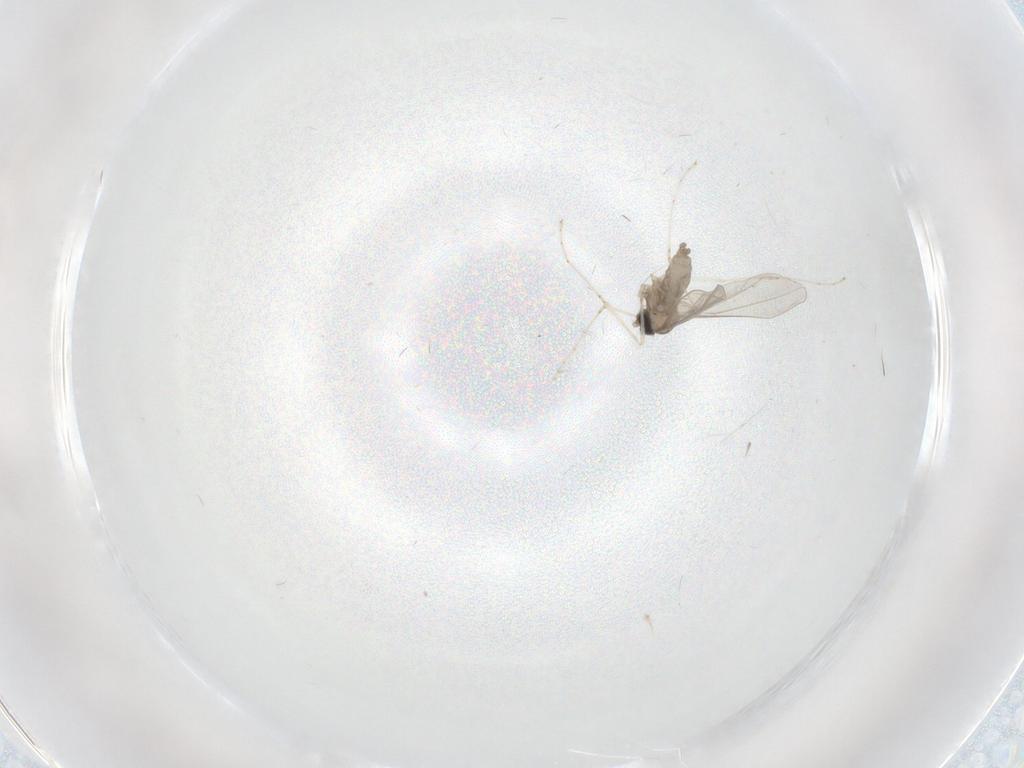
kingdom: Animalia
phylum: Arthropoda
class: Insecta
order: Diptera
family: Cecidomyiidae
